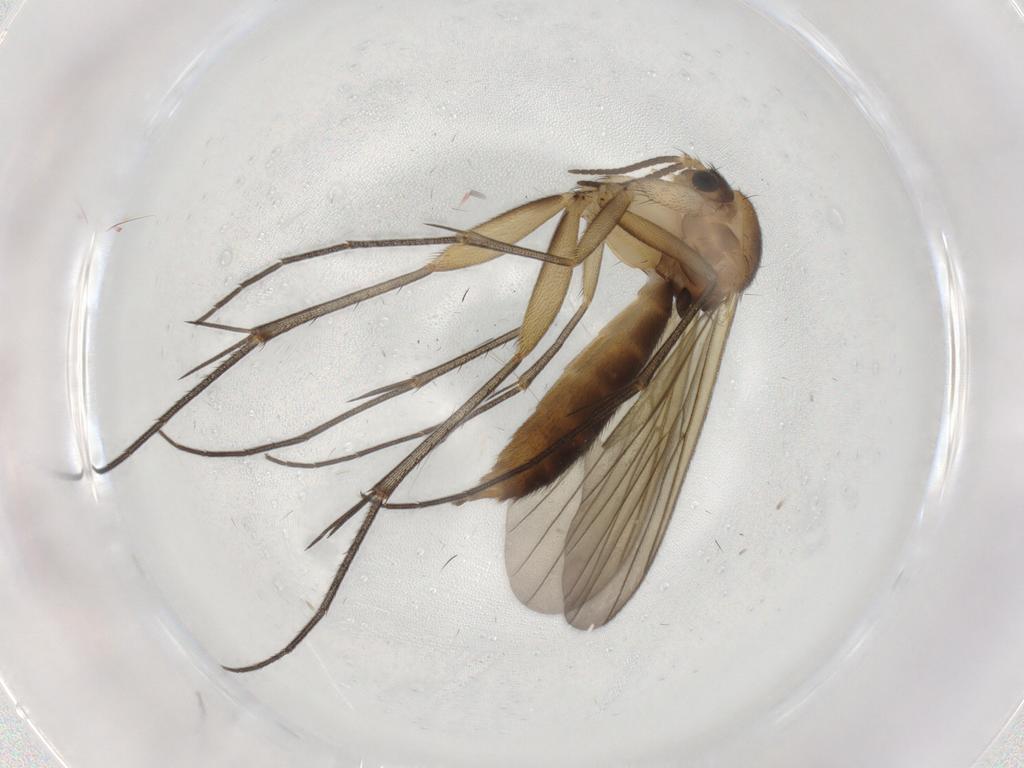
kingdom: Animalia
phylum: Arthropoda
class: Insecta
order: Diptera
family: Mycetophilidae
